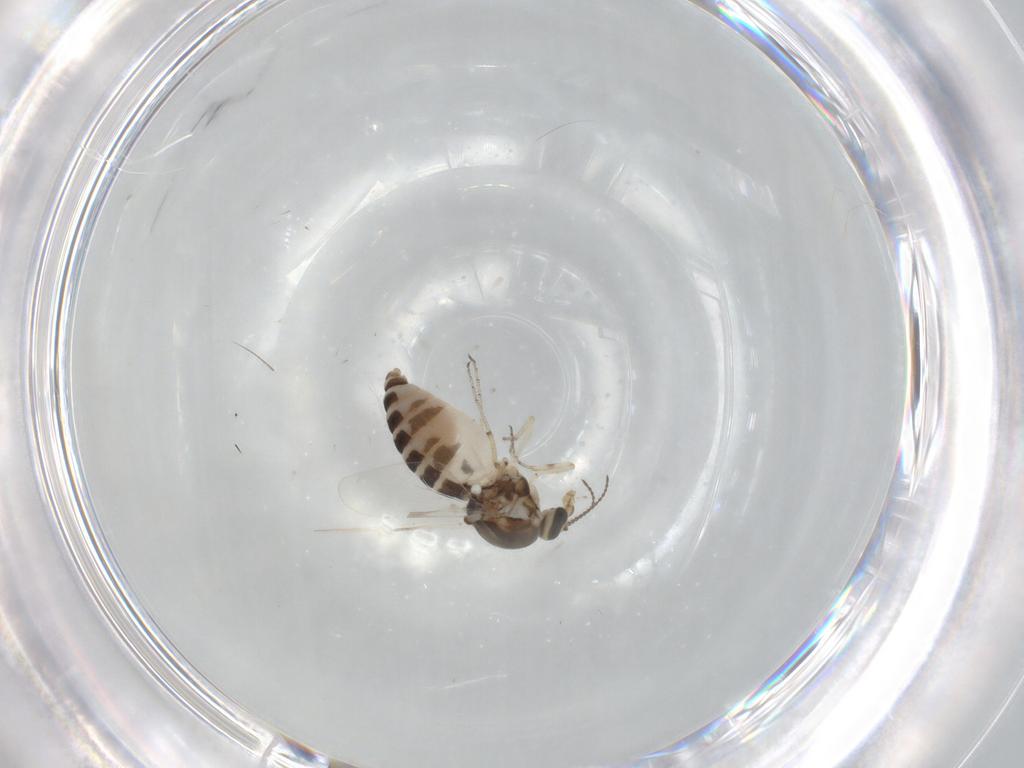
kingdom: Animalia
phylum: Arthropoda
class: Insecta
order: Diptera
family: Ceratopogonidae
